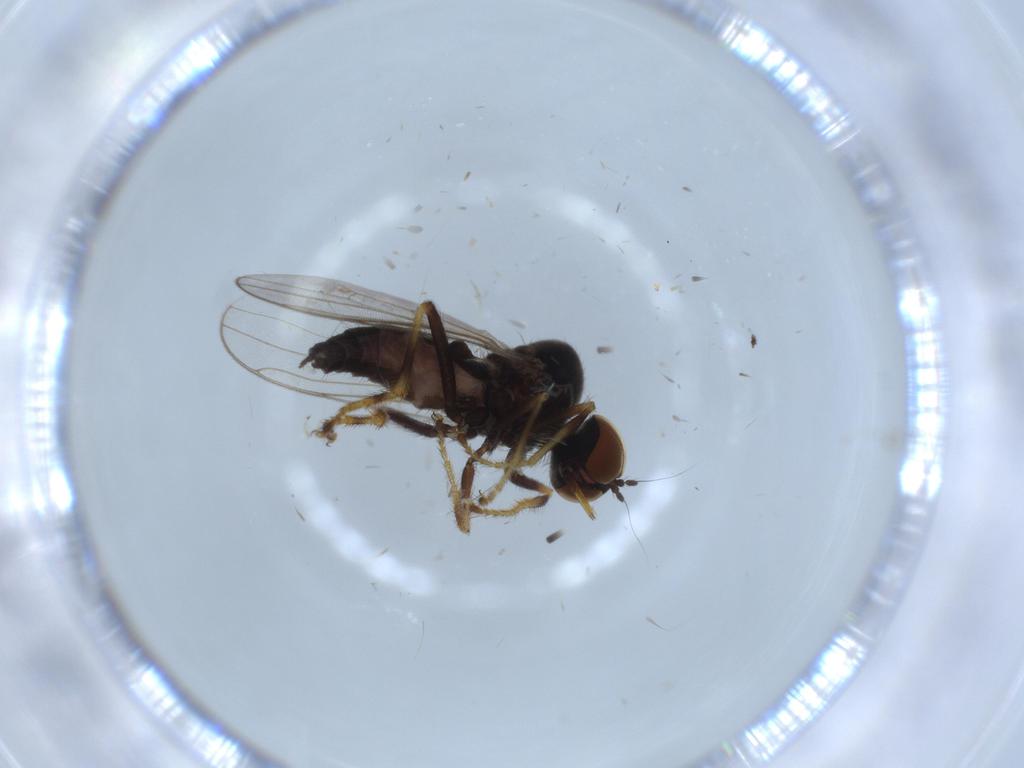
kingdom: Animalia
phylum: Arthropoda
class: Insecta
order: Diptera
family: Hybotidae
